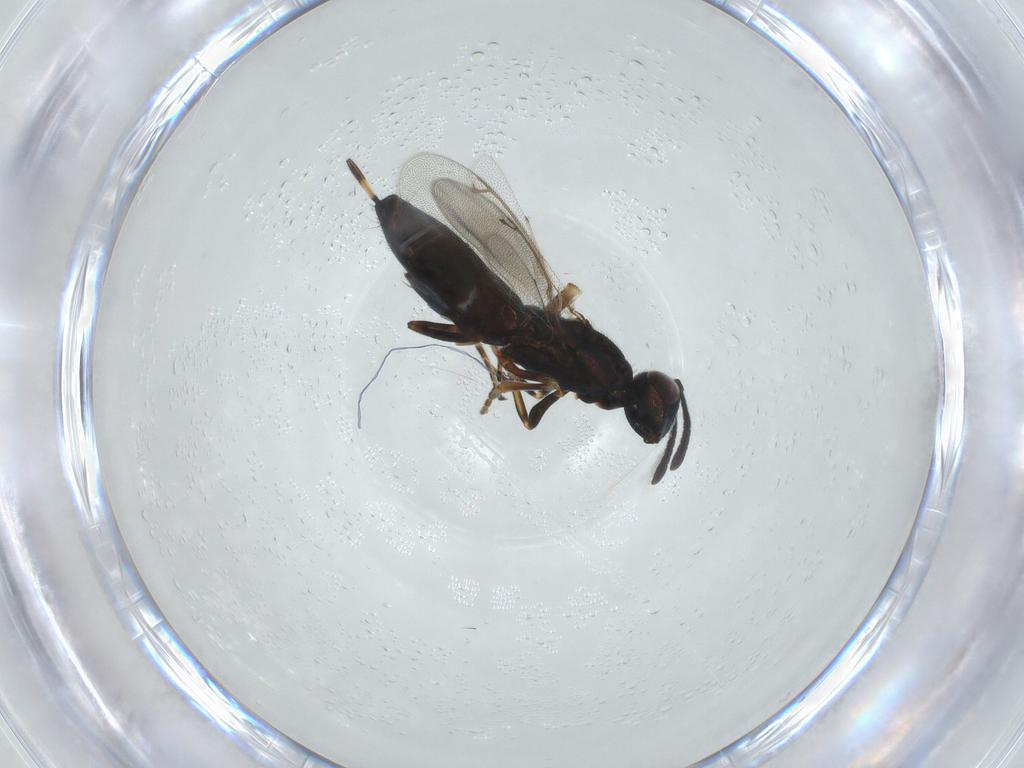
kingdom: Animalia
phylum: Arthropoda
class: Insecta
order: Hymenoptera
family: Eupelmidae
